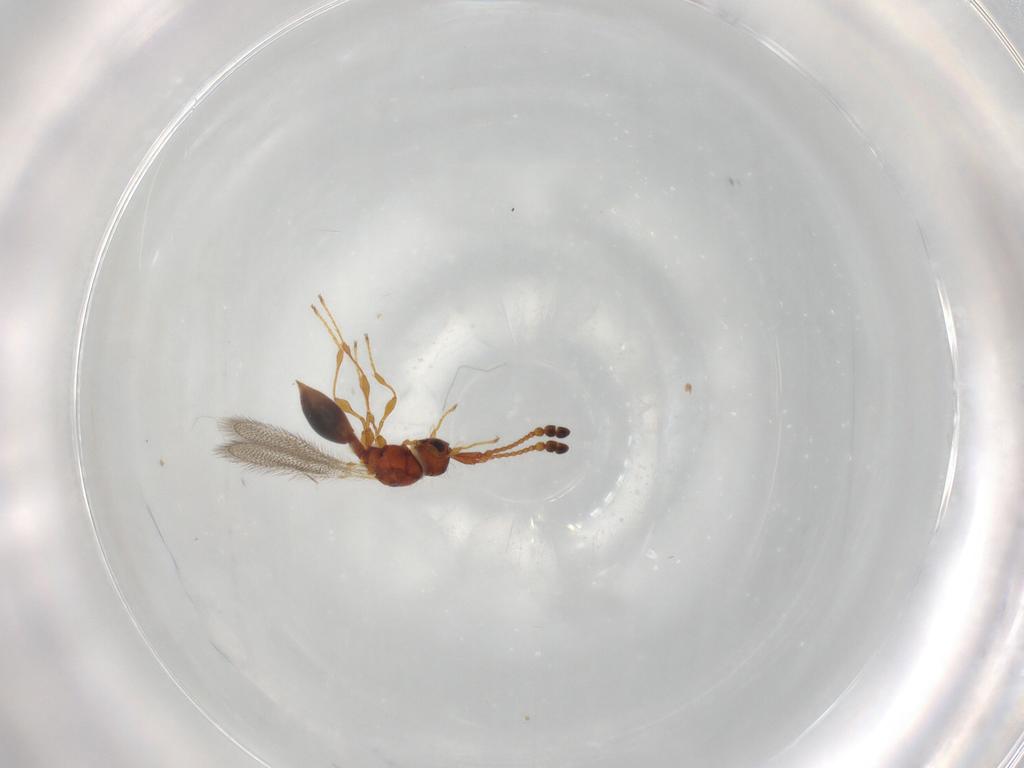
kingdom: Animalia
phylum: Arthropoda
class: Insecta
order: Hymenoptera
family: Diapriidae
